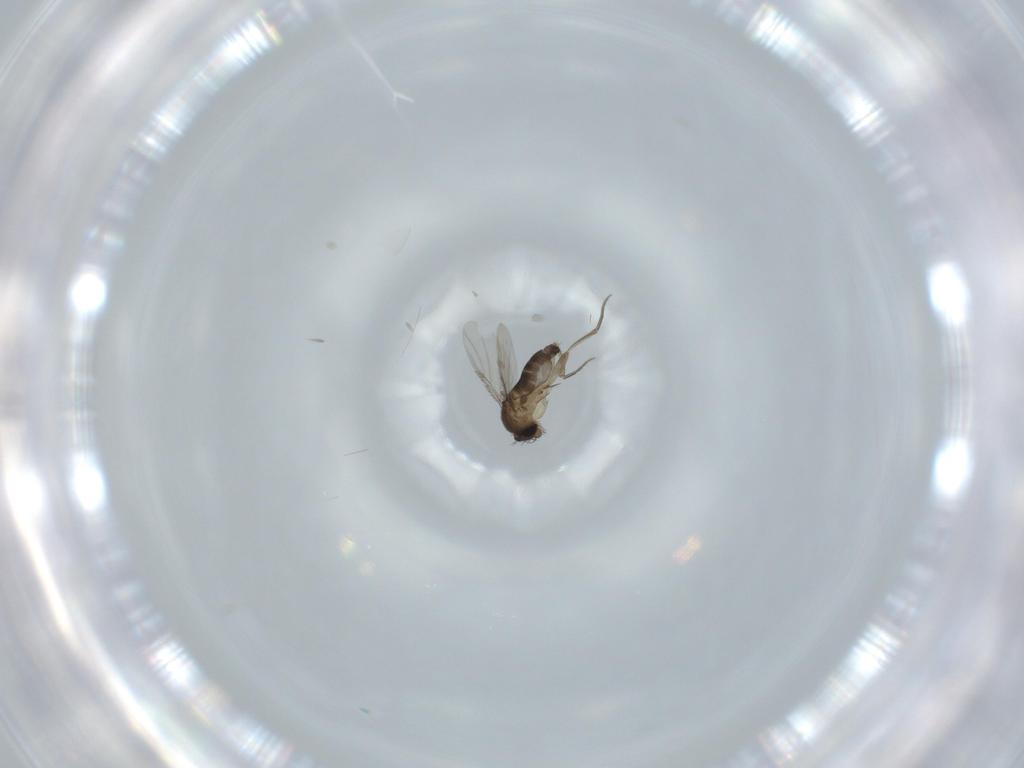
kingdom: Animalia
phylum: Arthropoda
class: Insecta
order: Diptera
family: Phoridae
